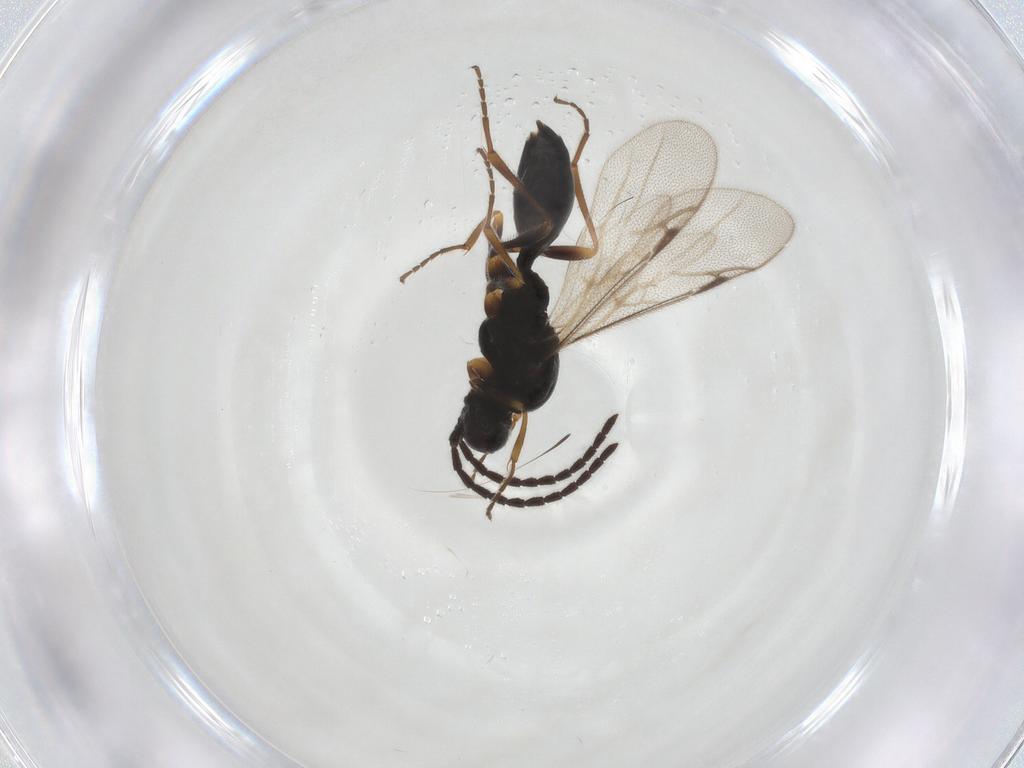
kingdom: Animalia
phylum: Arthropoda
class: Insecta
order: Hymenoptera
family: Proctotrupidae
